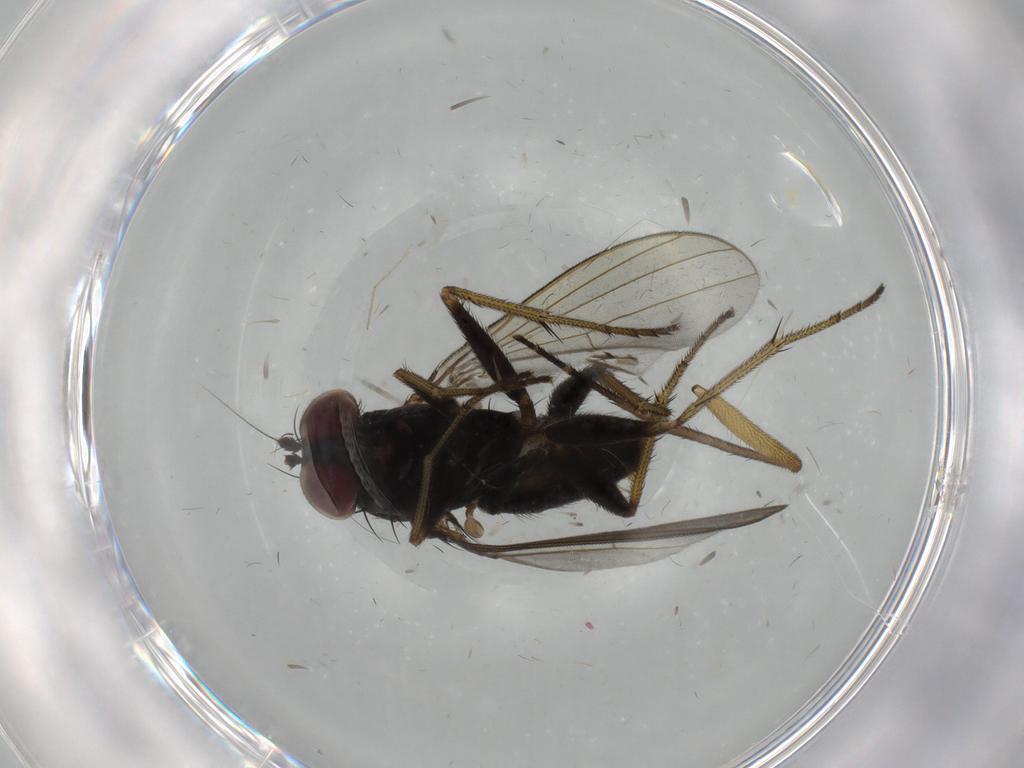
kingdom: Animalia
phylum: Arthropoda
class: Insecta
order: Diptera
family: Dolichopodidae
